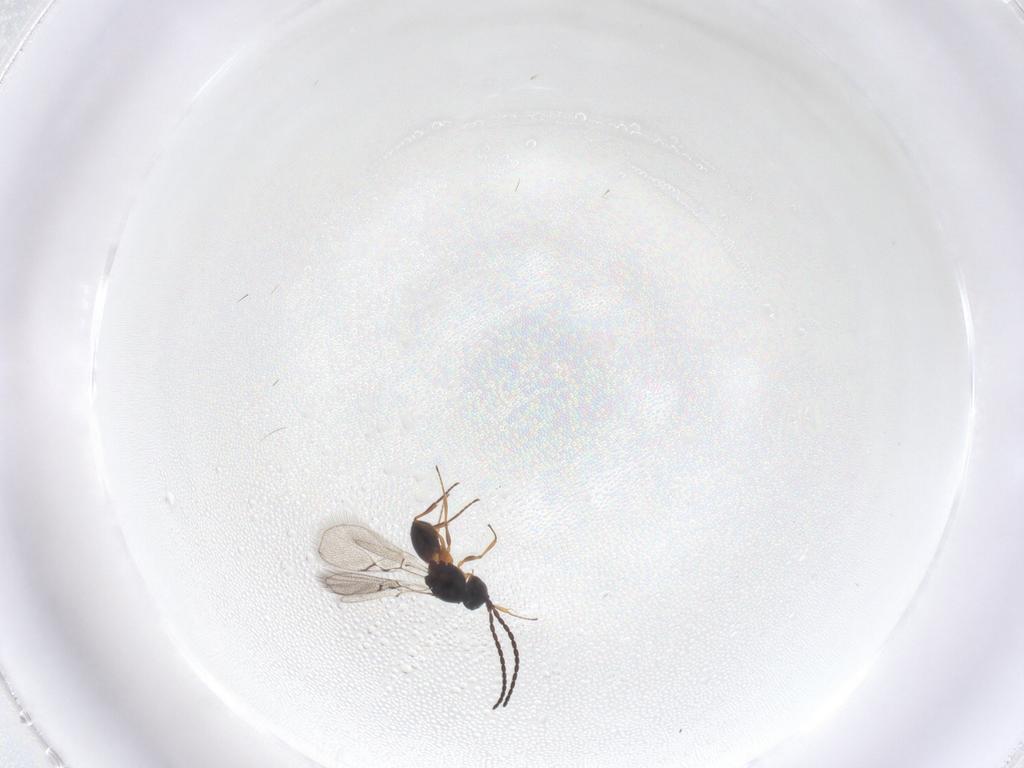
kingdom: Animalia
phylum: Arthropoda
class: Insecta
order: Hymenoptera
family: Figitidae
